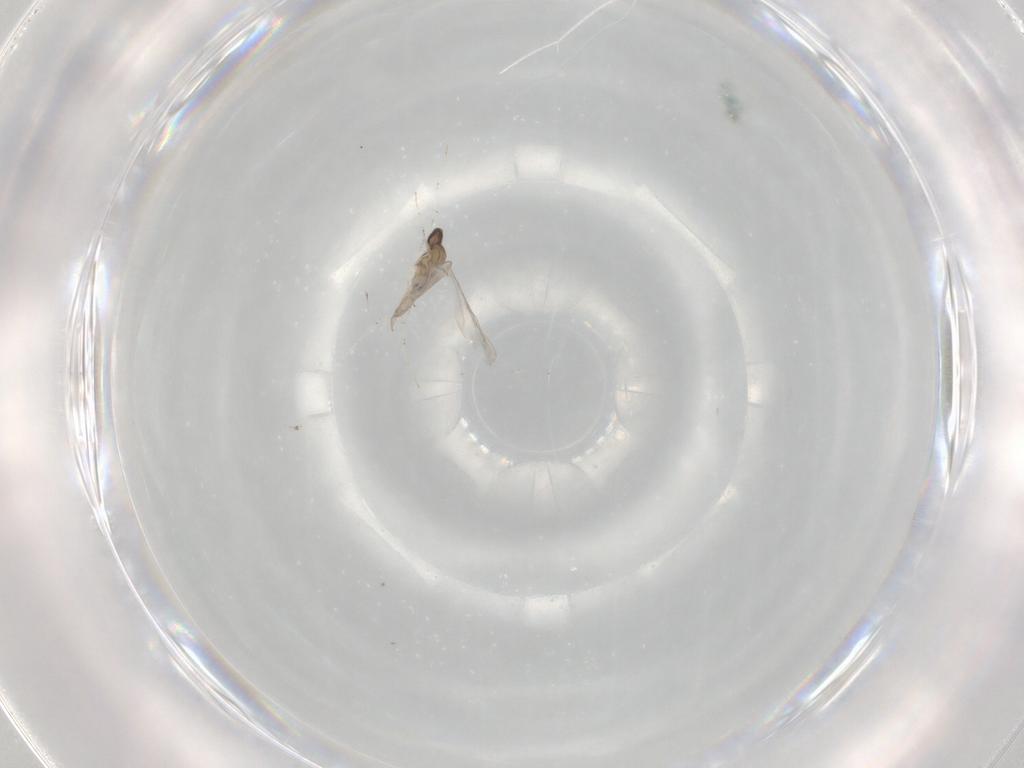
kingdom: Animalia
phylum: Arthropoda
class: Insecta
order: Diptera
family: Cecidomyiidae
